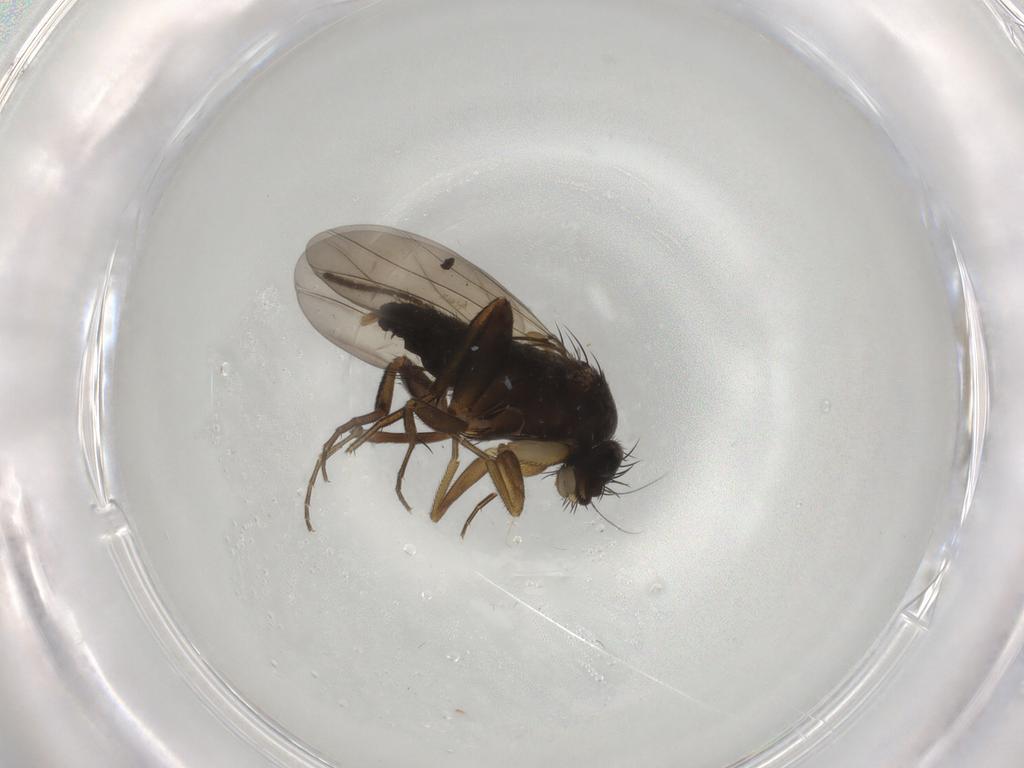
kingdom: Animalia
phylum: Arthropoda
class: Insecta
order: Diptera
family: Phoridae
